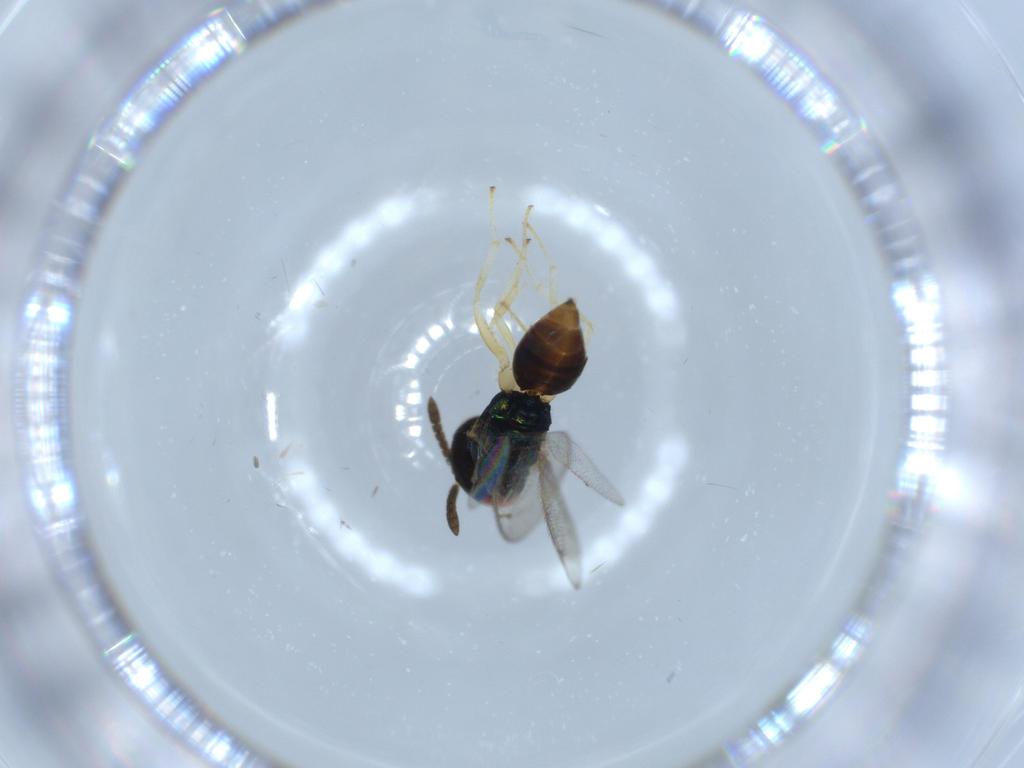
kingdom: Animalia
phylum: Arthropoda
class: Insecta
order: Hymenoptera
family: Pteromalidae
